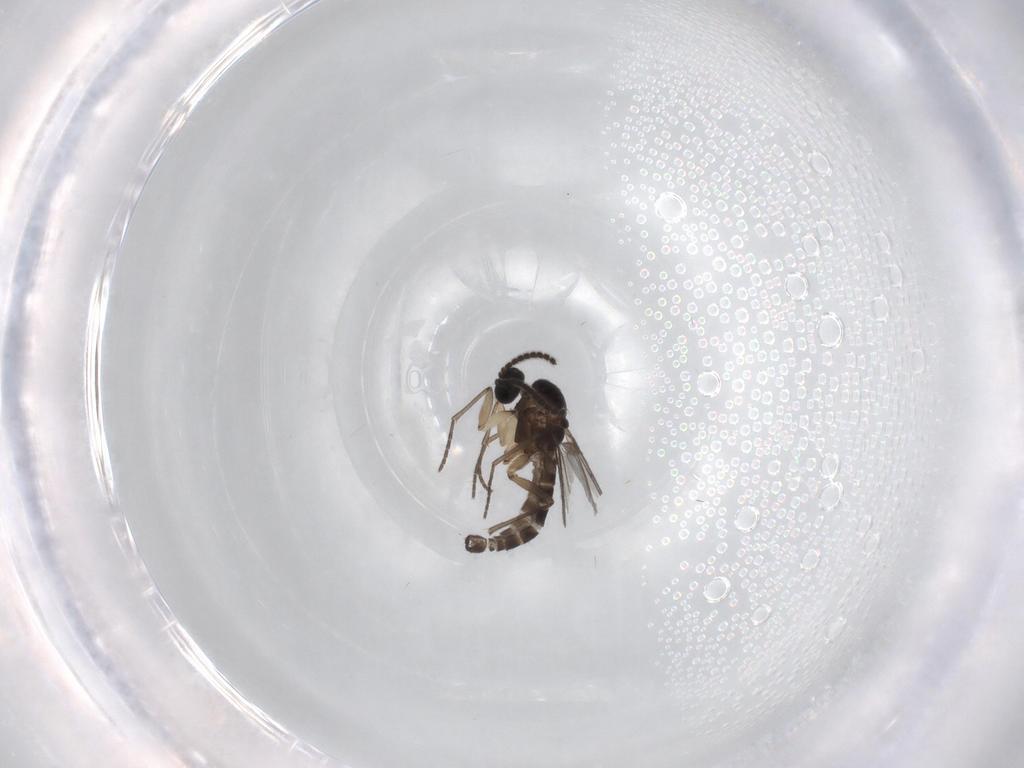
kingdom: Animalia
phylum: Arthropoda
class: Insecta
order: Diptera
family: Sciaridae
